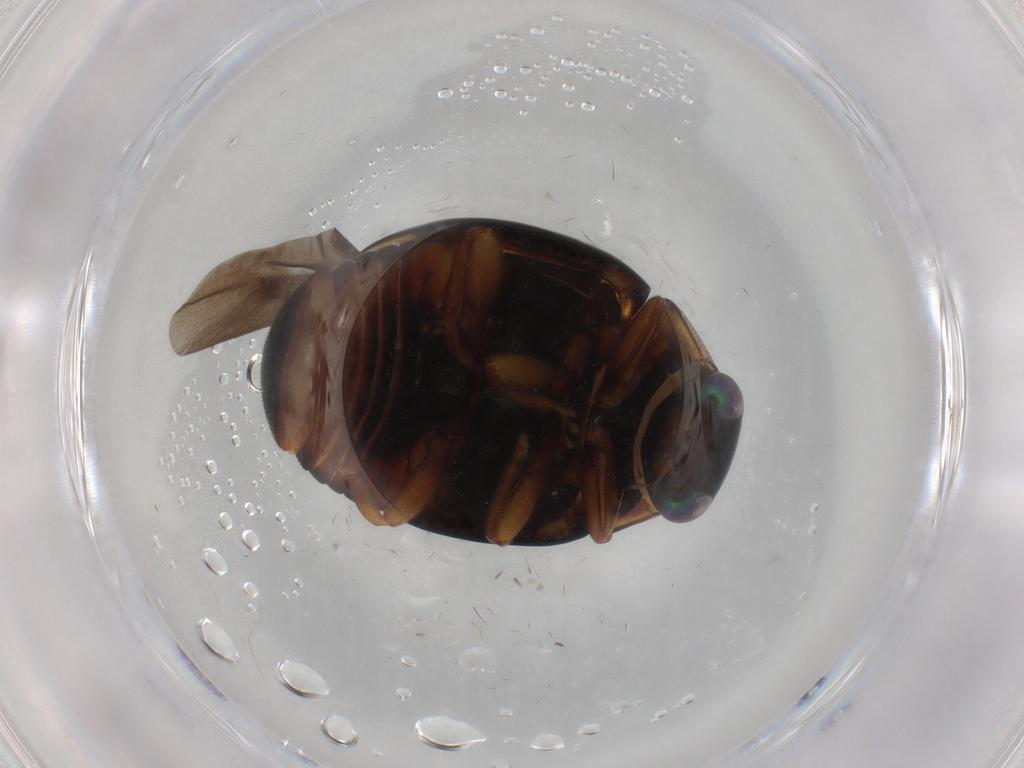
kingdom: Animalia
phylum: Arthropoda
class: Insecta
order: Coleoptera
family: Coccinellidae
